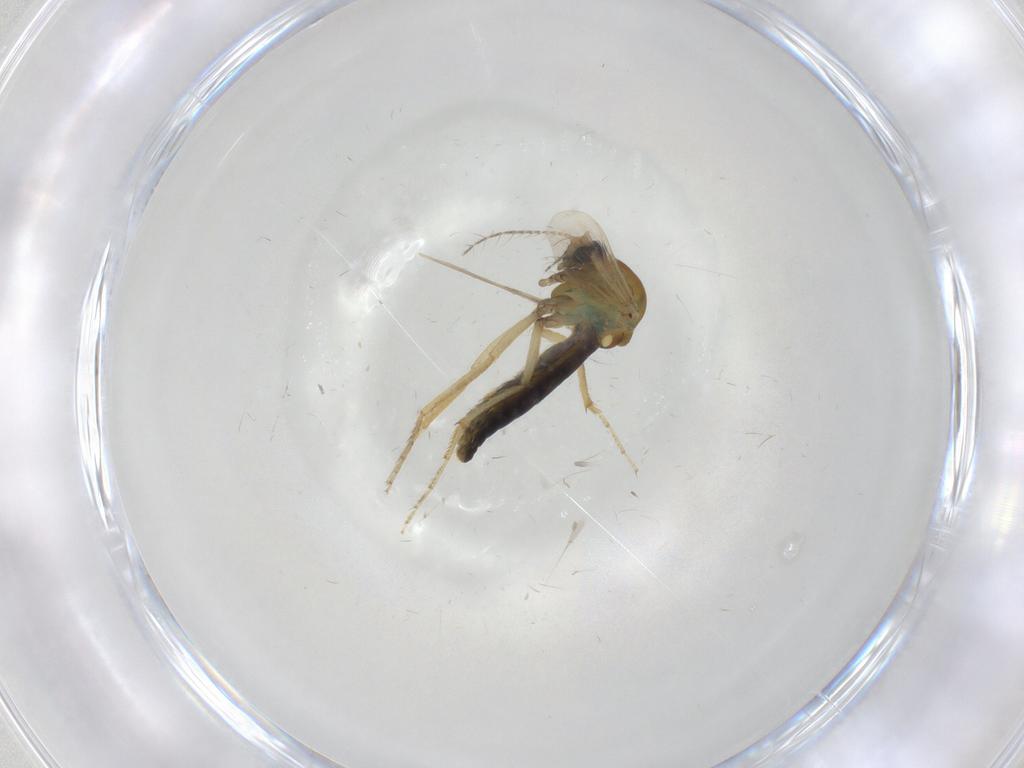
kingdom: Animalia
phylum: Arthropoda
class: Insecta
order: Diptera
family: Ceratopogonidae
